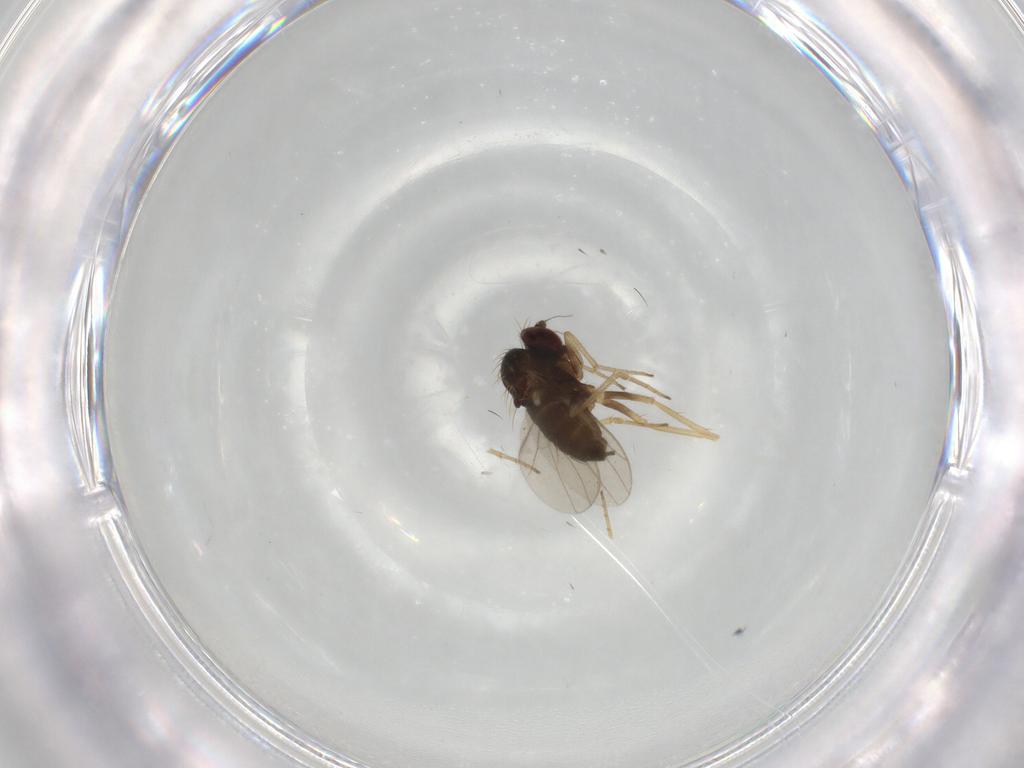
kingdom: Animalia
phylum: Arthropoda
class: Insecta
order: Diptera
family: Dolichopodidae
